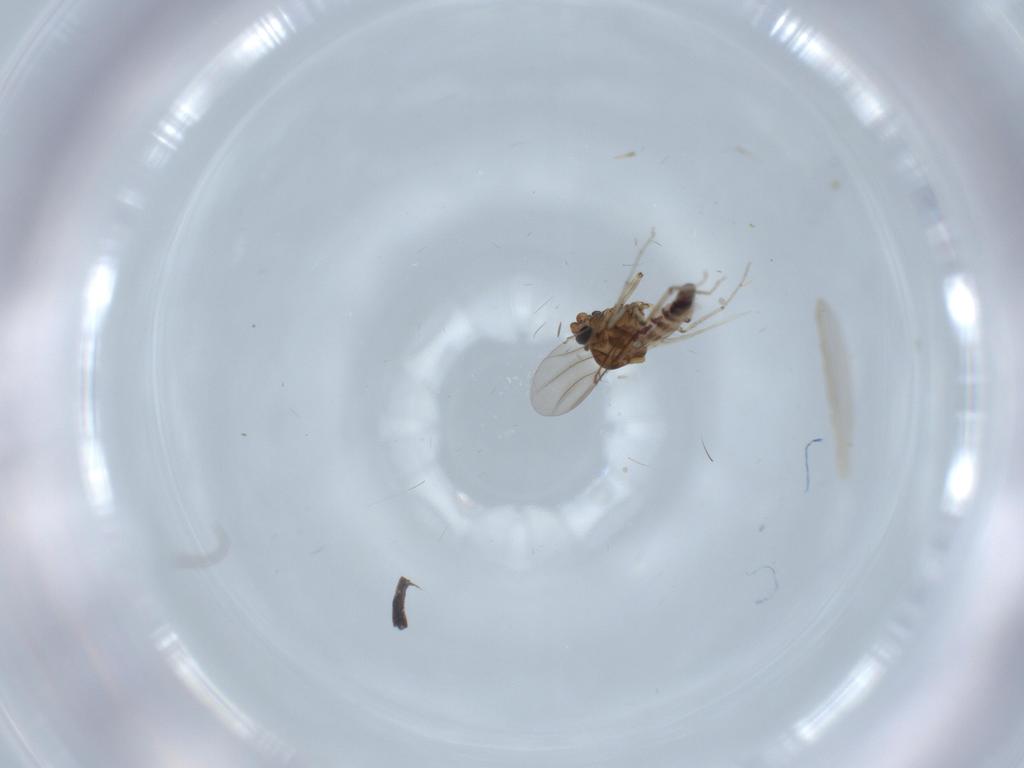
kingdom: Animalia
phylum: Arthropoda
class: Insecta
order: Diptera
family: Ceratopogonidae
